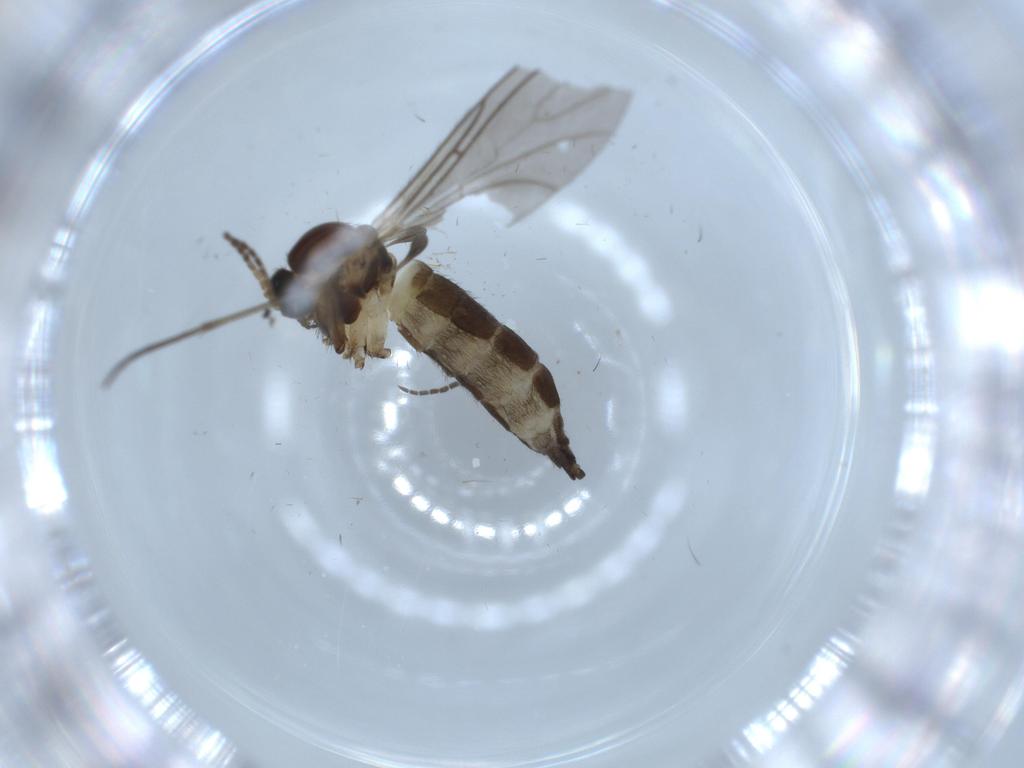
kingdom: Animalia
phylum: Arthropoda
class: Insecta
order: Diptera
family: Sciaridae
